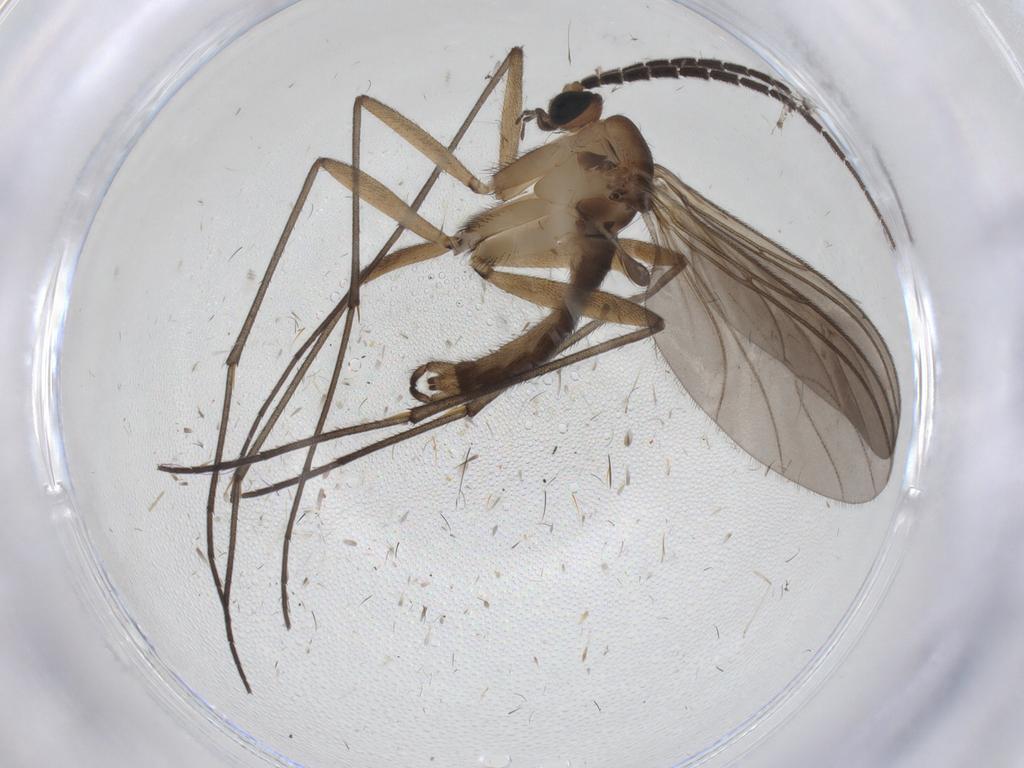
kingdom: Animalia
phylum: Arthropoda
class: Insecta
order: Diptera
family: Cecidomyiidae
